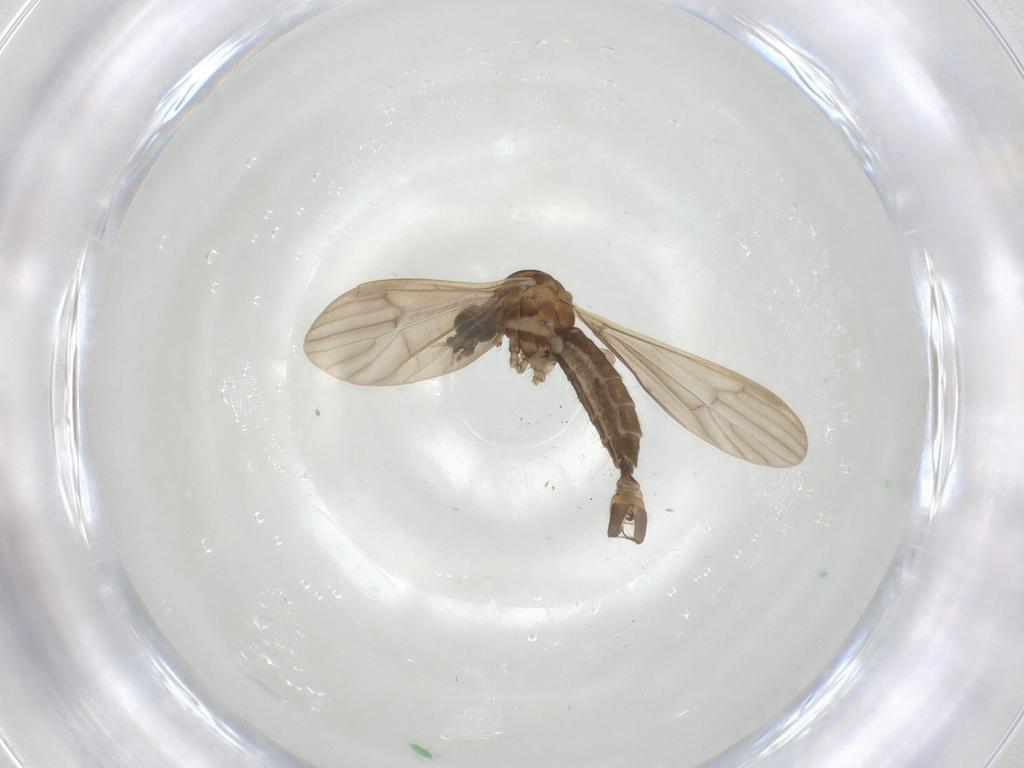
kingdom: Animalia
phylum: Arthropoda
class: Insecta
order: Diptera
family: Limoniidae
